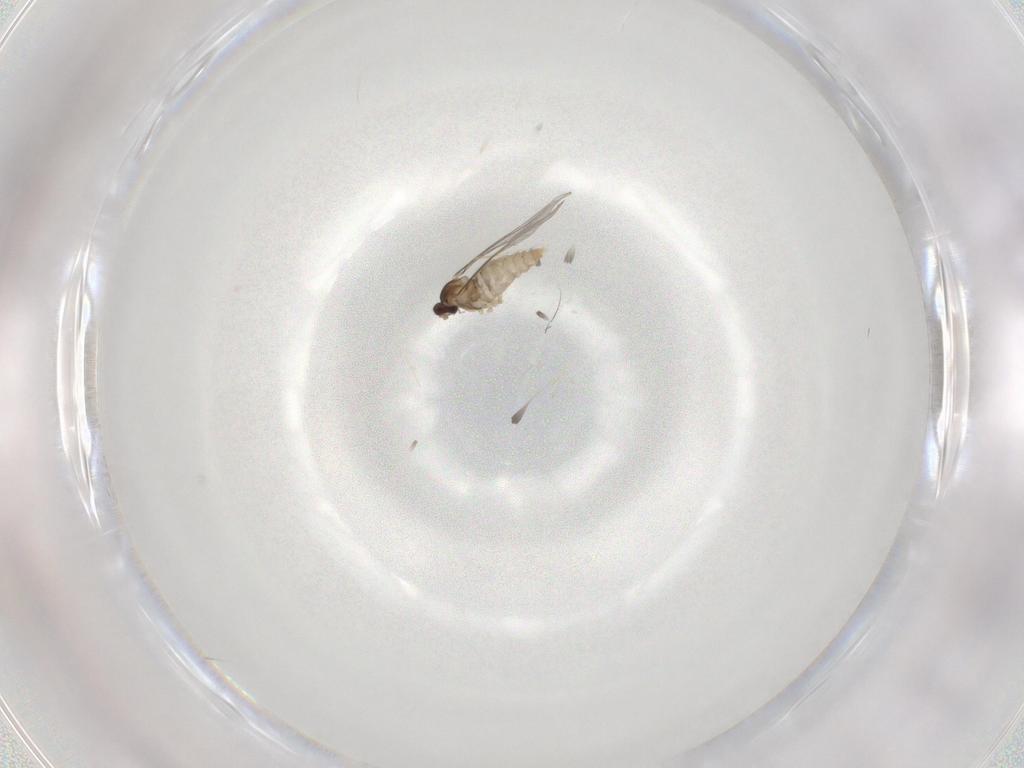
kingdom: Animalia
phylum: Arthropoda
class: Insecta
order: Diptera
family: Cecidomyiidae
